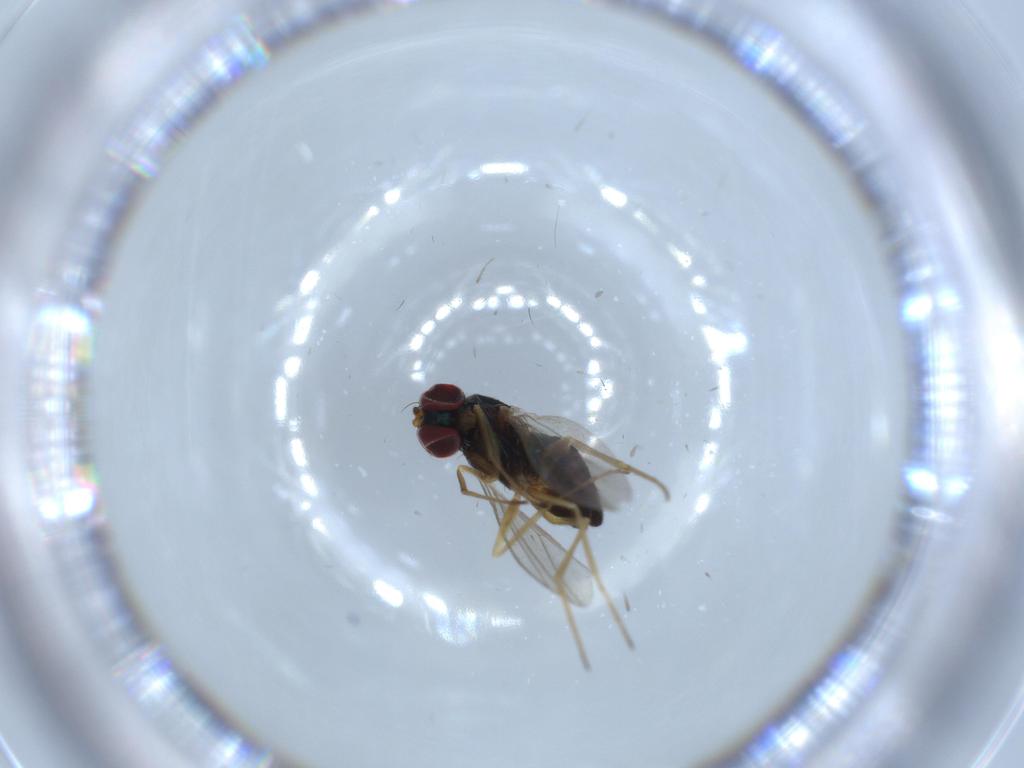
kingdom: Animalia
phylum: Arthropoda
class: Insecta
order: Diptera
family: Dolichopodidae
